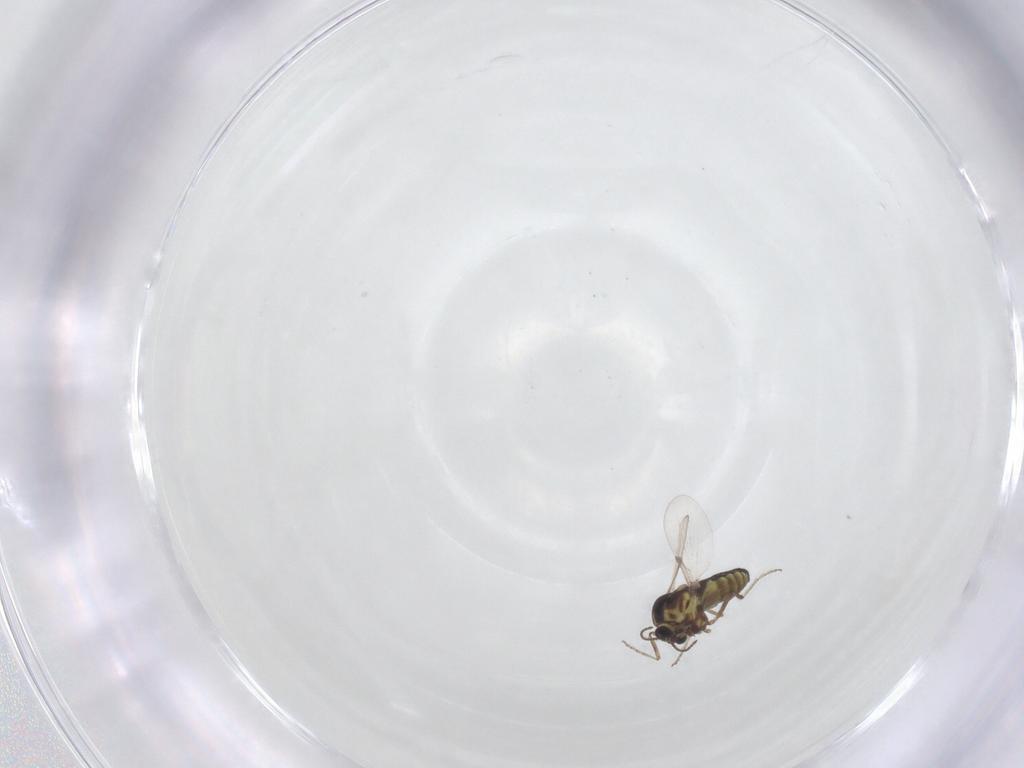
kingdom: Animalia
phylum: Arthropoda
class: Insecta
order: Diptera
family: Ceratopogonidae
